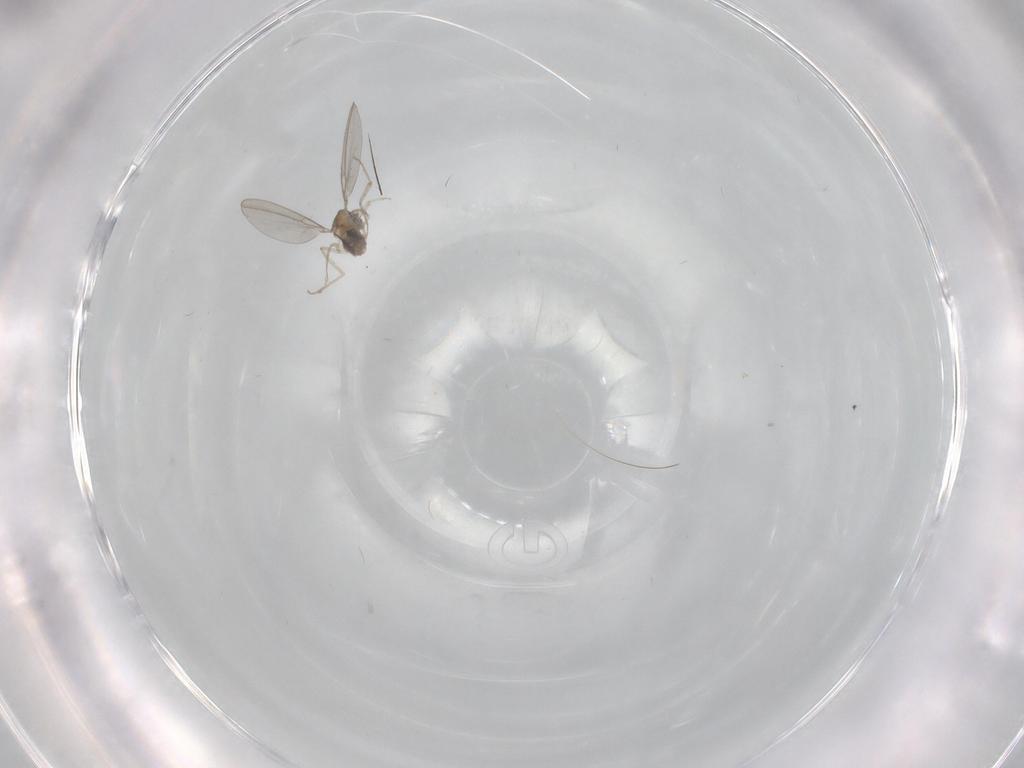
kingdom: Animalia
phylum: Arthropoda
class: Insecta
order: Diptera
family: Cecidomyiidae
